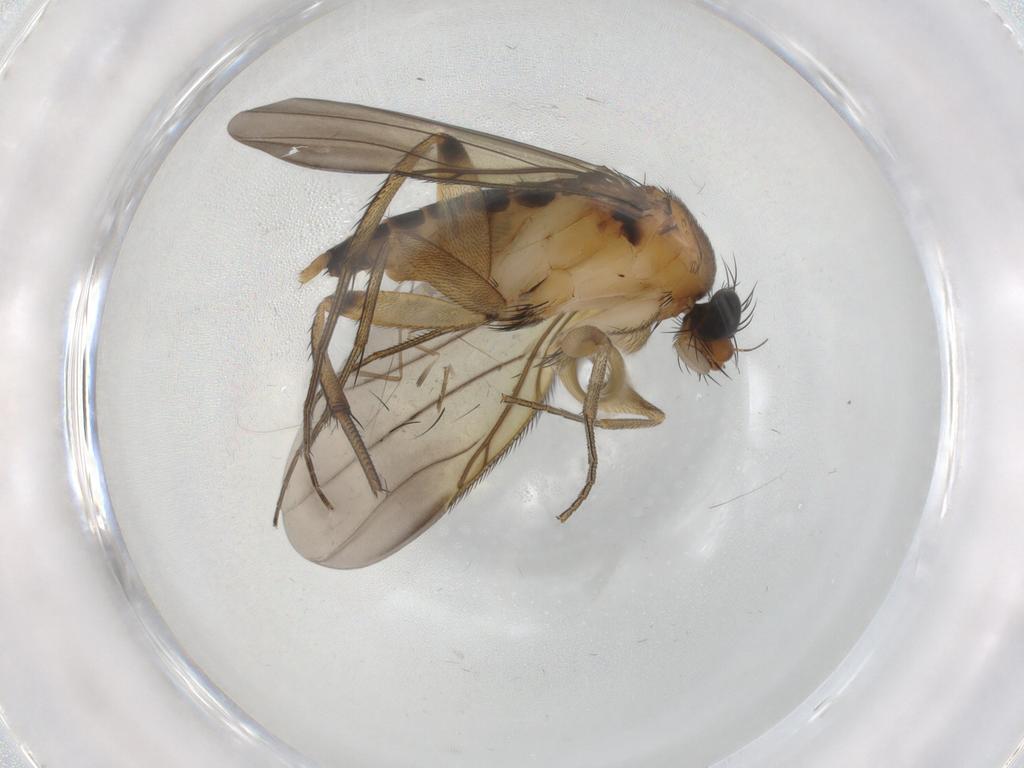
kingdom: Animalia
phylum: Arthropoda
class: Insecta
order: Diptera
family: Phoridae
